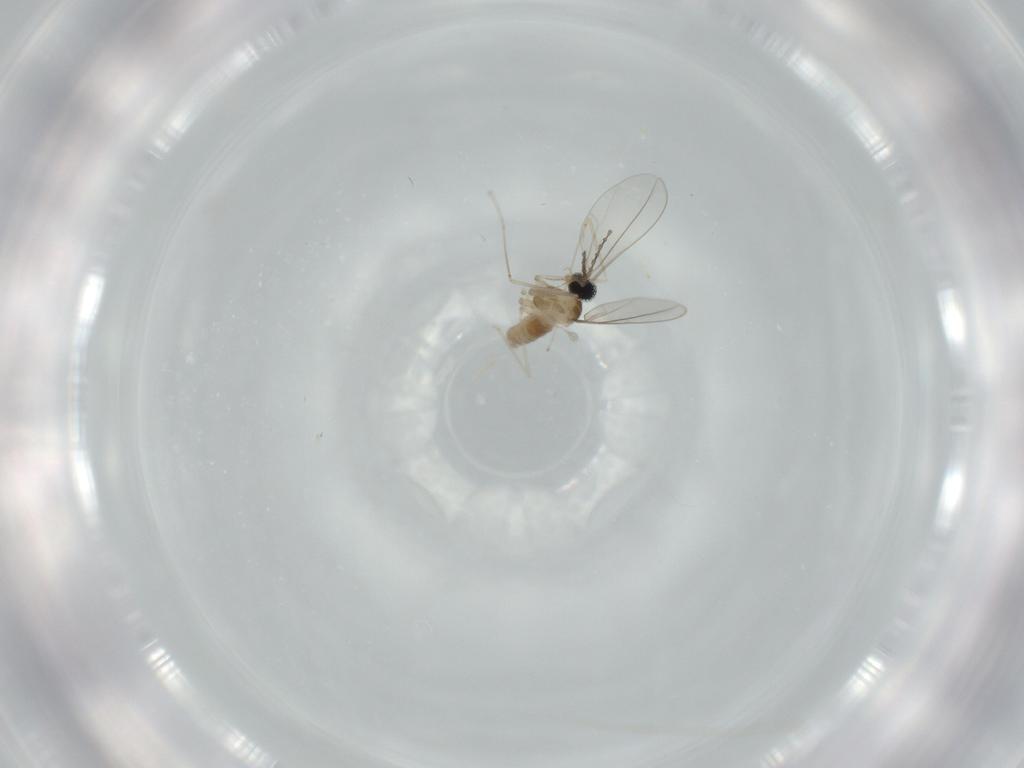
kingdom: Animalia
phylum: Arthropoda
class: Insecta
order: Diptera
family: Cecidomyiidae
